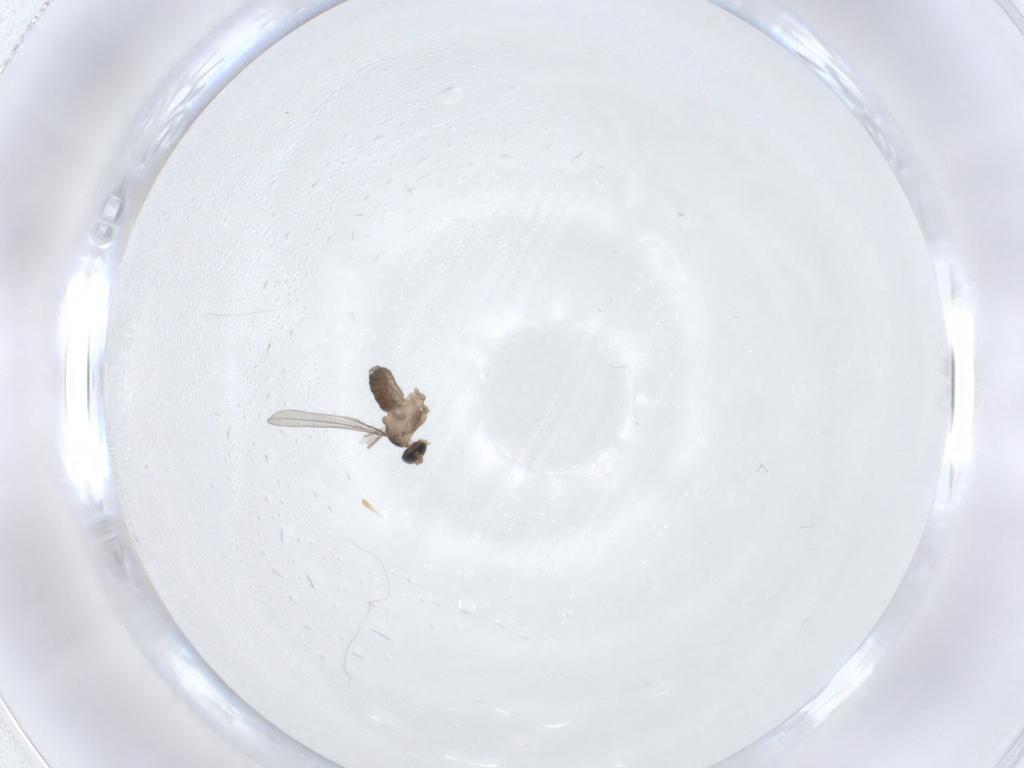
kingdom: Animalia
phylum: Arthropoda
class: Insecta
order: Diptera
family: Chironomidae
